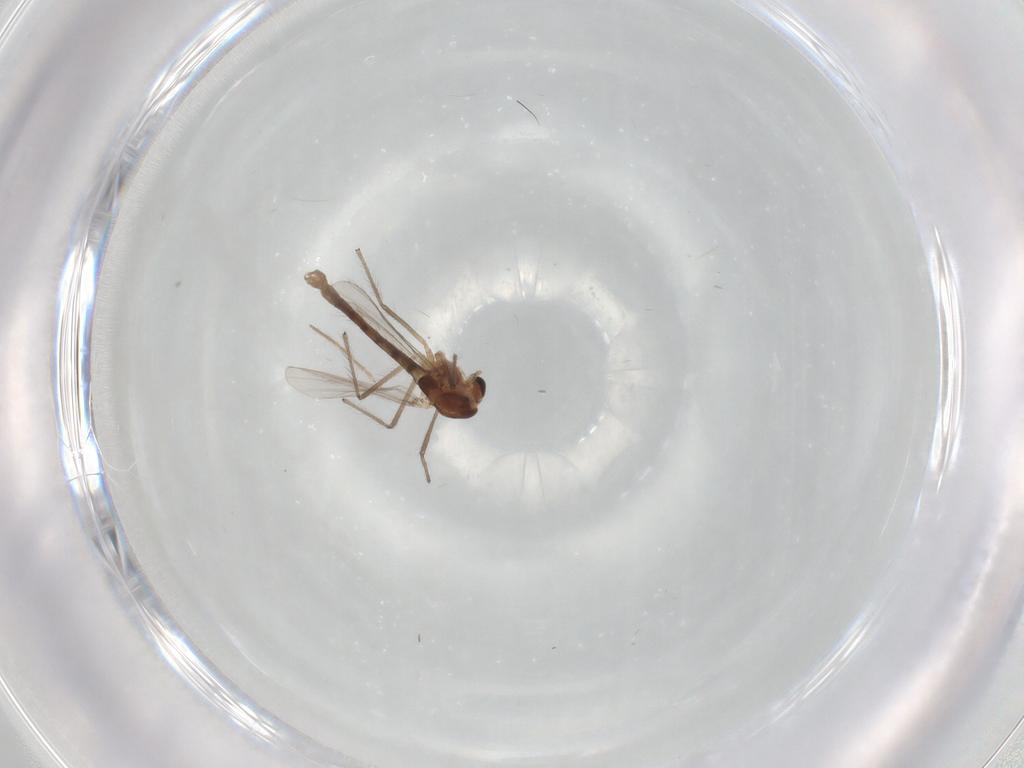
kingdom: Animalia
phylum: Arthropoda
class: Insecta
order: Diptera
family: Chironomidae
